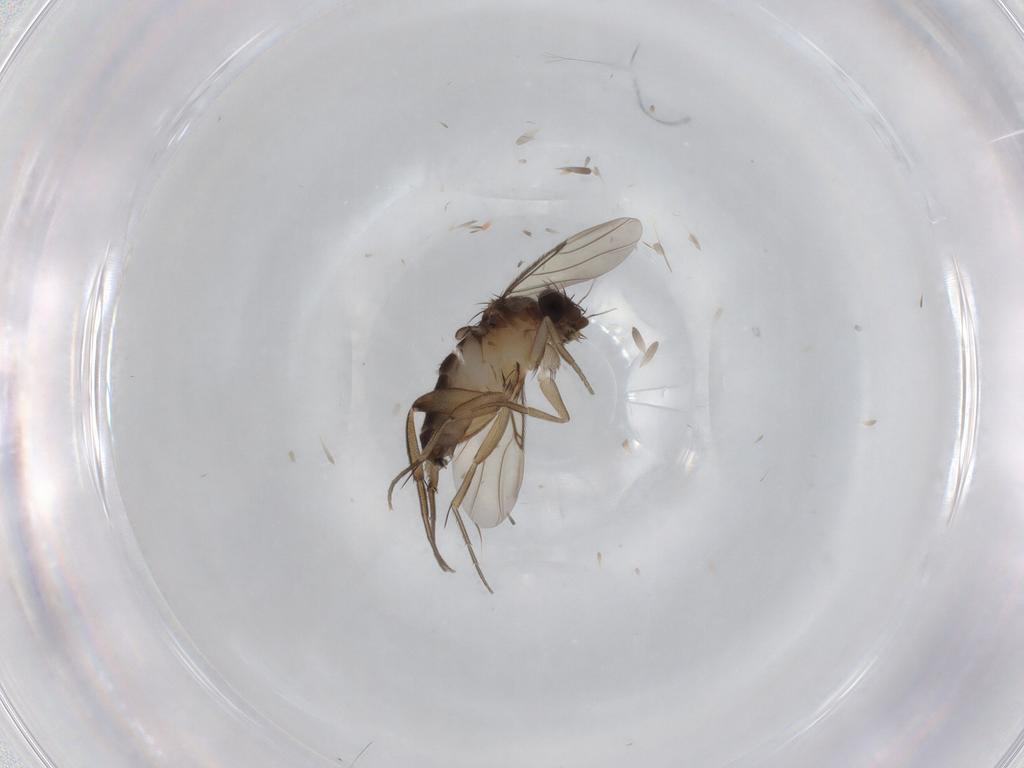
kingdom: Animalia
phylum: Arthropoda
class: Insecta
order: Diptera
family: Phoridae
